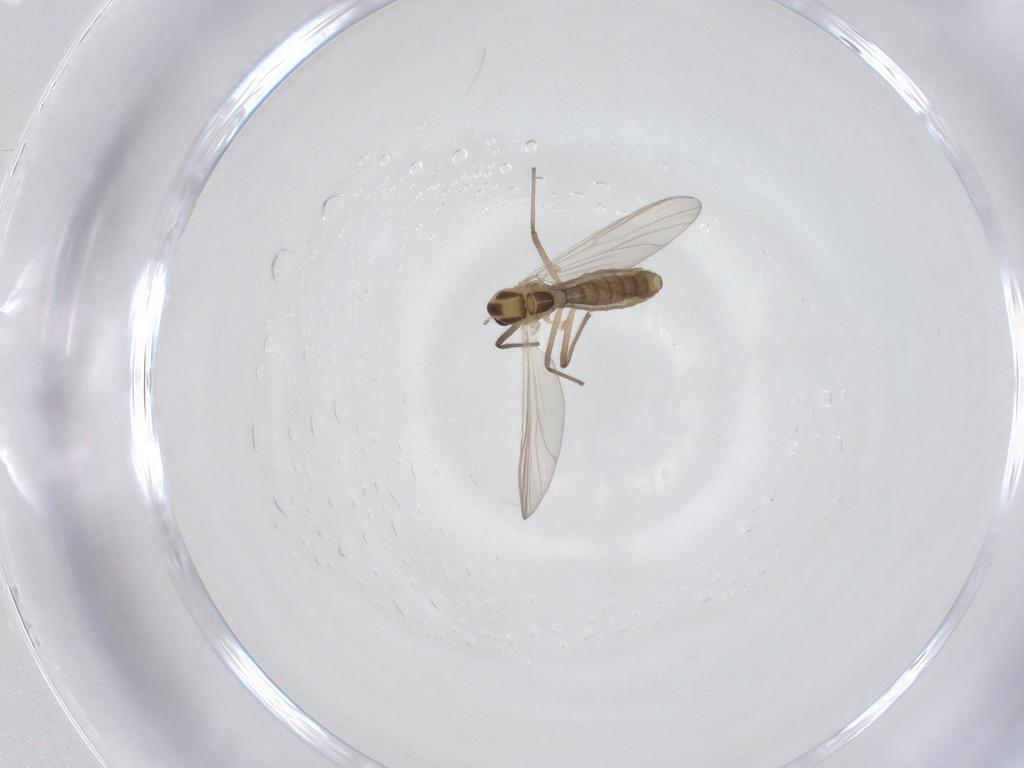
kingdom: Animalia
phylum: Arthropoda
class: Insecta
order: Diptera
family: Chironomidae
